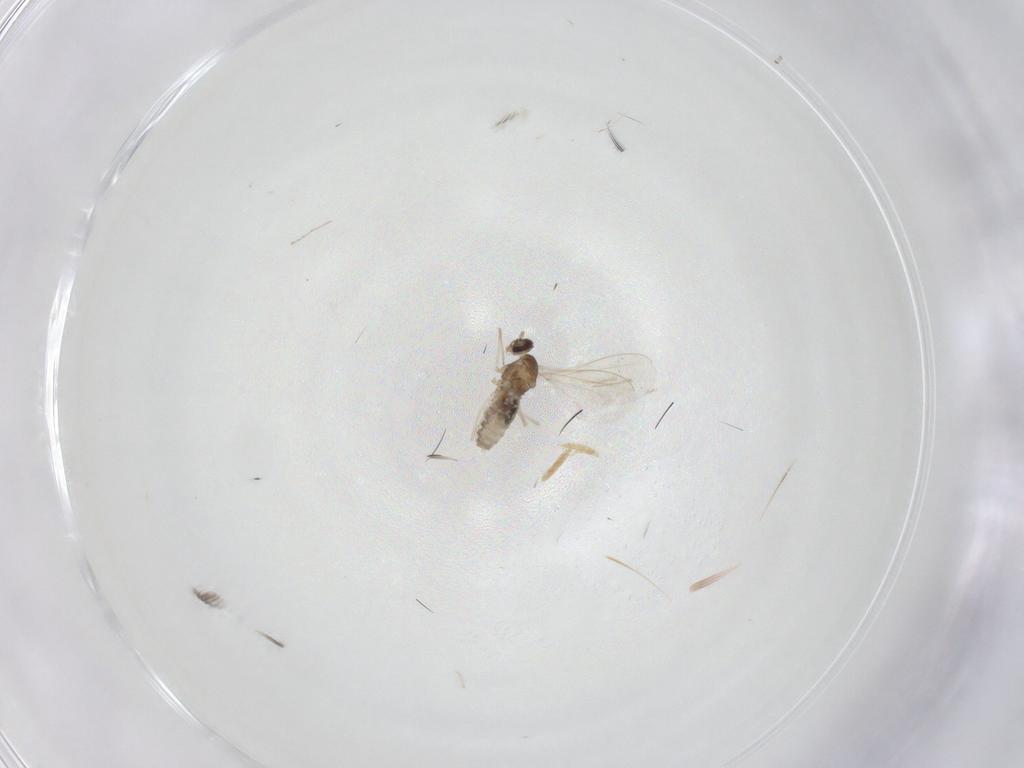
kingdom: Animalia
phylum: Arthropoda
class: Insecta
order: Diptera
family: Cecidomyiidae
